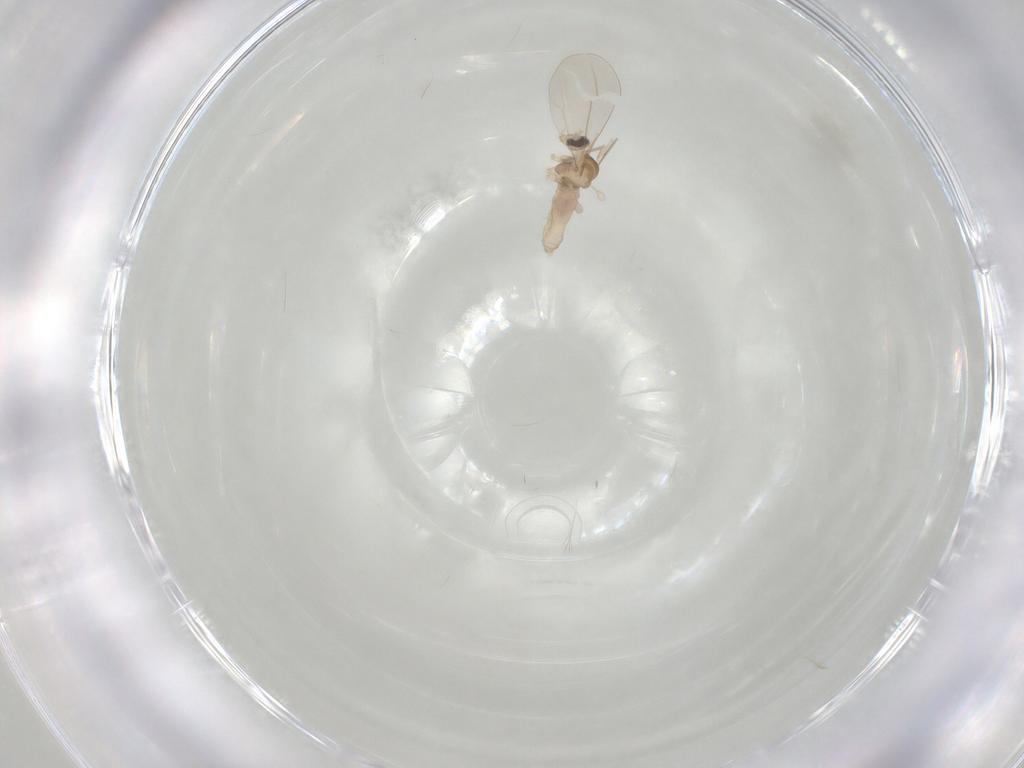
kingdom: Animalia
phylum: Arthropoda
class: Insecta
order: Diptera
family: Cecidomyiidae
